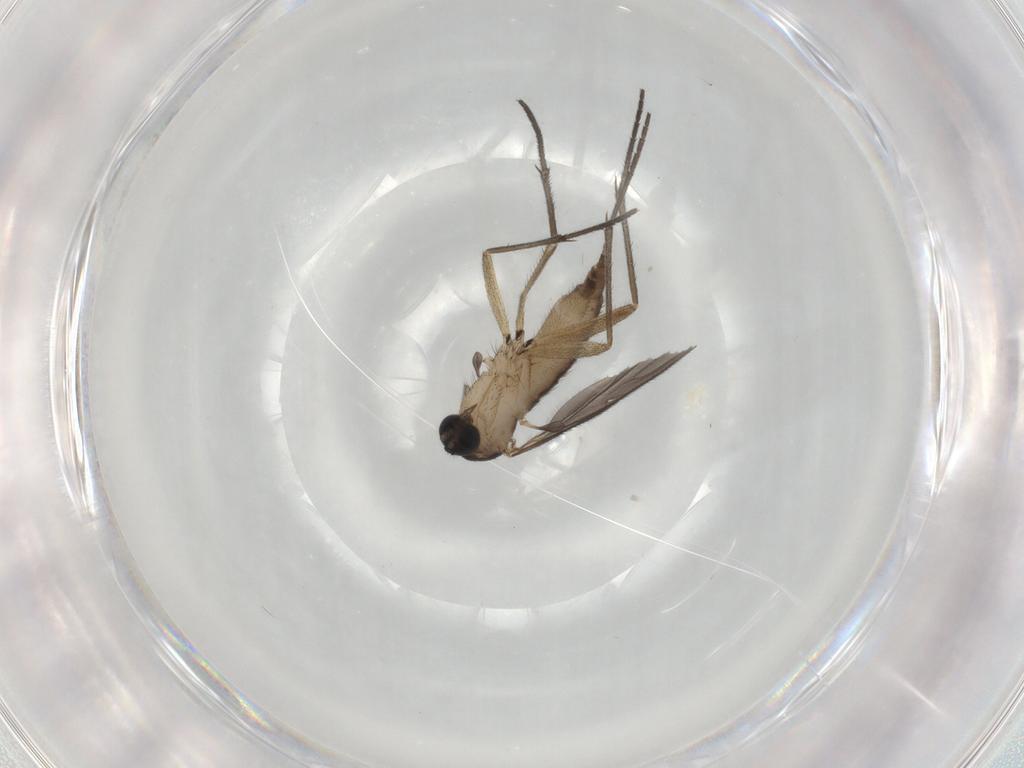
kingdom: Animalia
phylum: Arthropoda
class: Insecta
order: Diptera
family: Sciaridae
